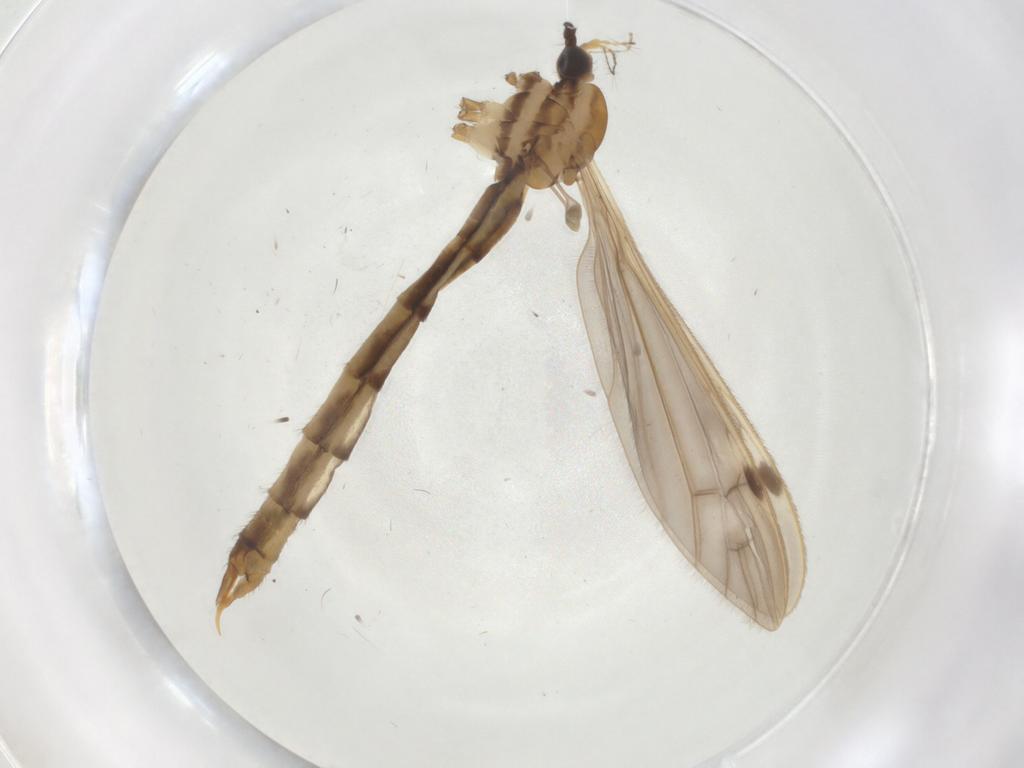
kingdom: Animalia
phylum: Arthropoda
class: Insecta
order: Diptera
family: Limoniidae
